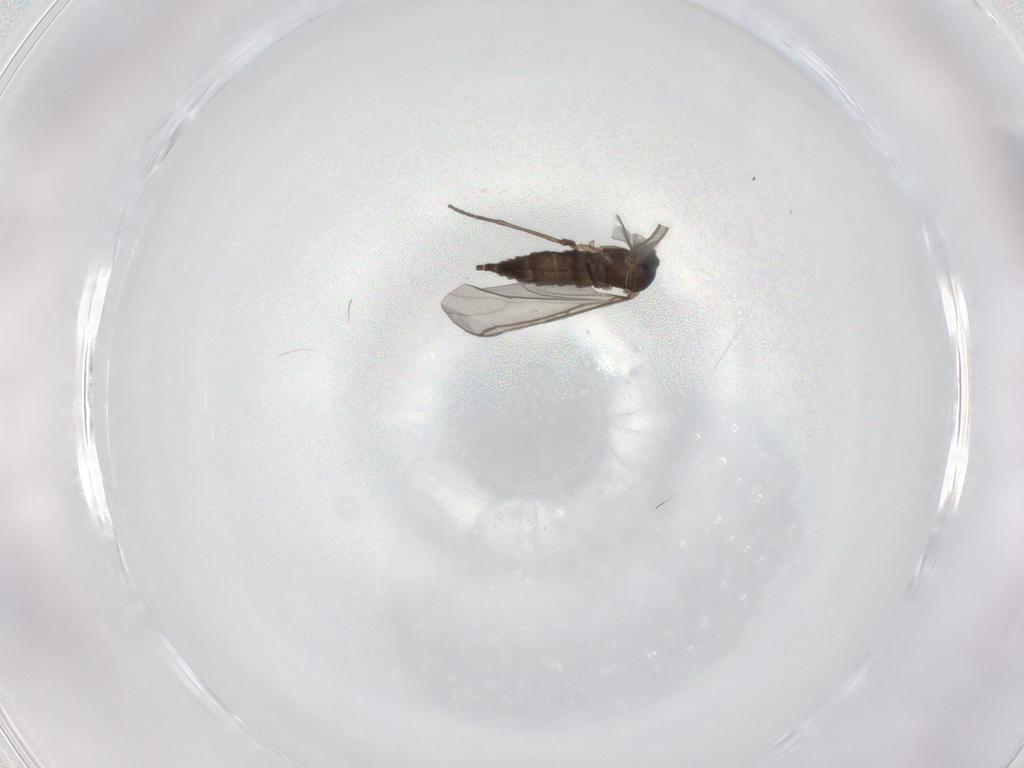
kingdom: Animalia
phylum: Arthropoda
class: Insecta
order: Diptera
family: Sciaridae
